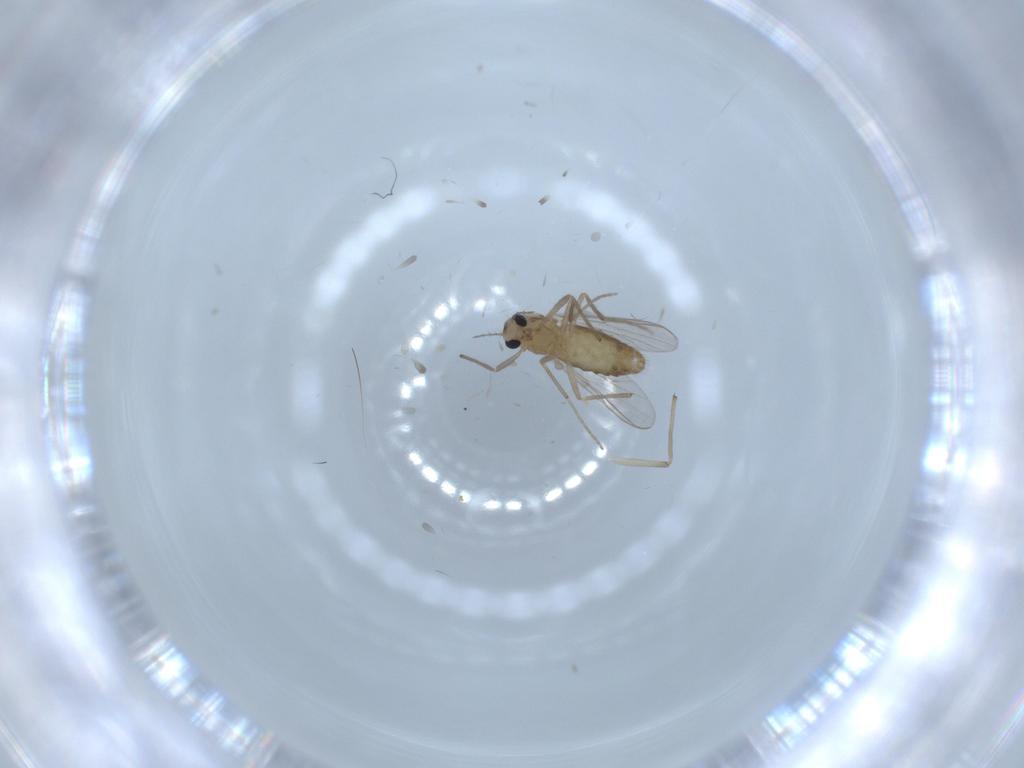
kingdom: Animalia
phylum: Arthropoda
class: Insecta
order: Diptera
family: Chironomidae
